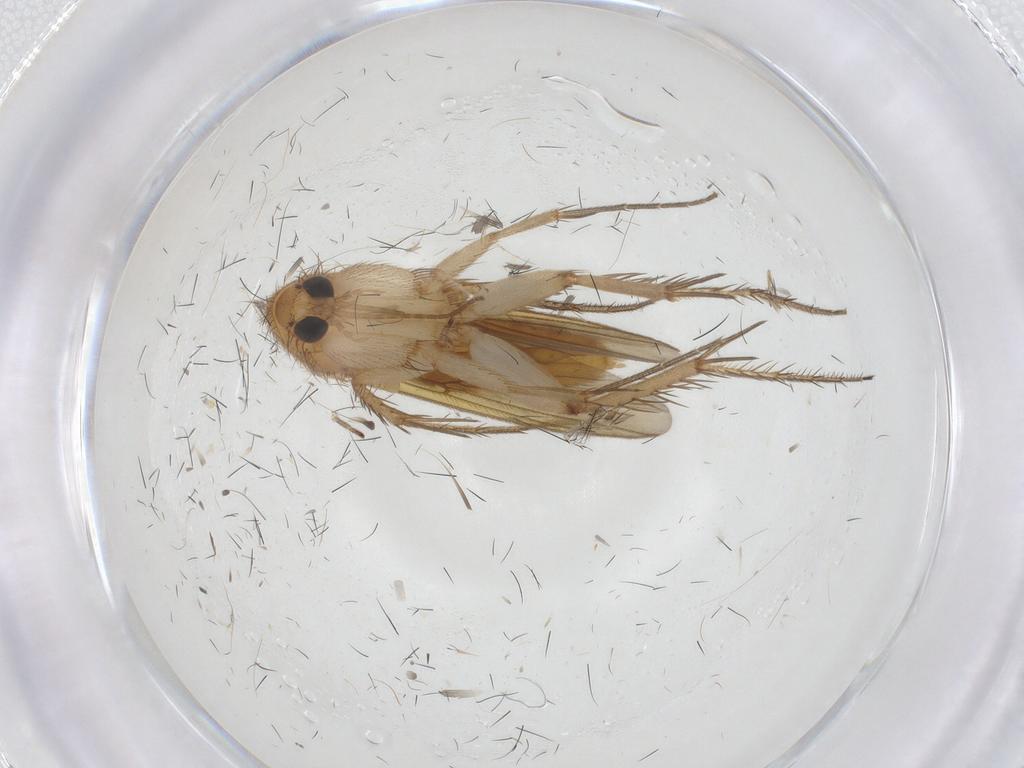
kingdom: Animalia
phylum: Arthropoda
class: Insecta
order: Diptera
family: Mycetophilidae
